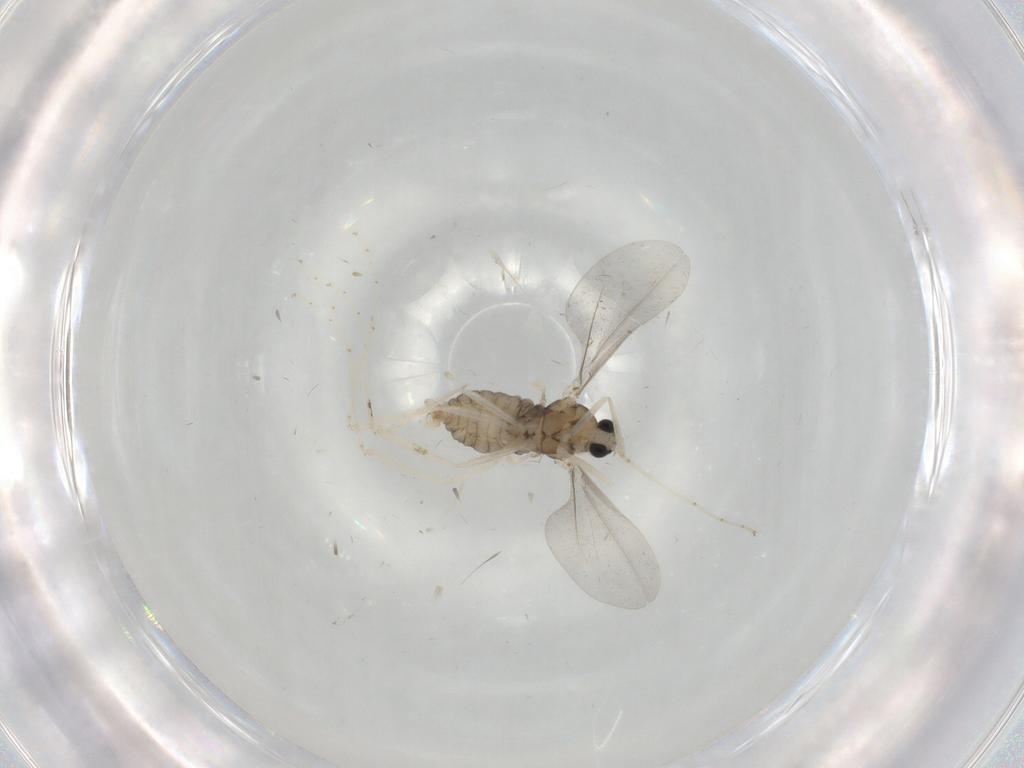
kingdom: Animalia
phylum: Arthropoda
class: Insecta
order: Diptera
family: Cecidomyiidae
